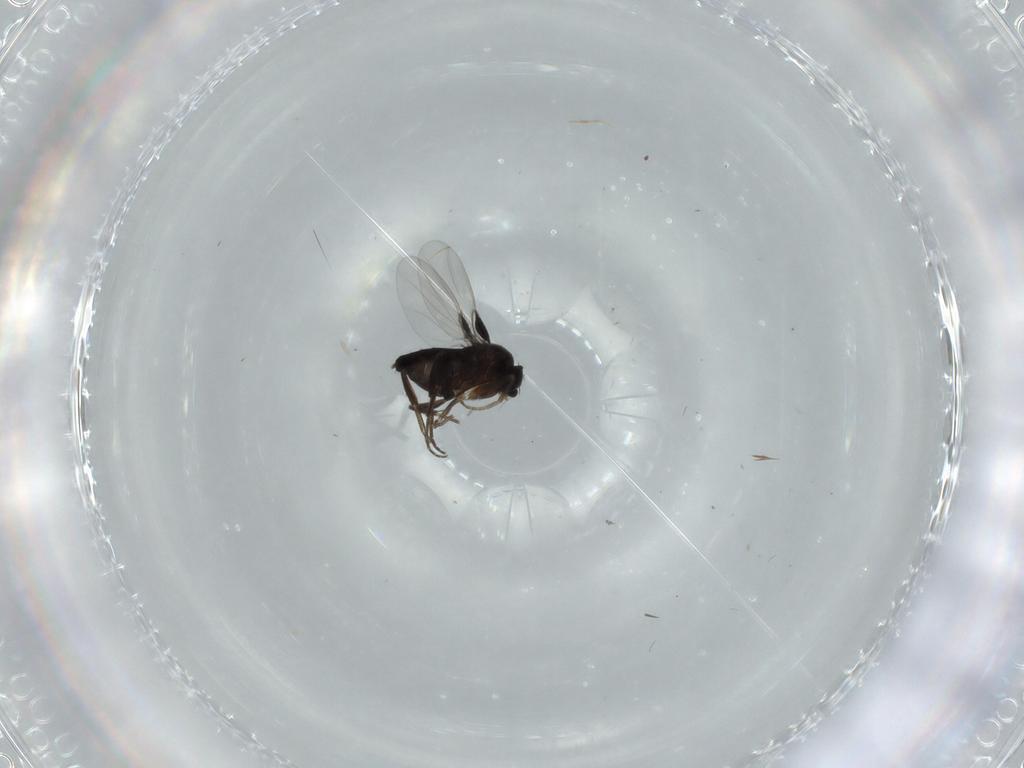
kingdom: Animalia
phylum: Arthropoda
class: Insecta
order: Diptera
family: Phoridae
